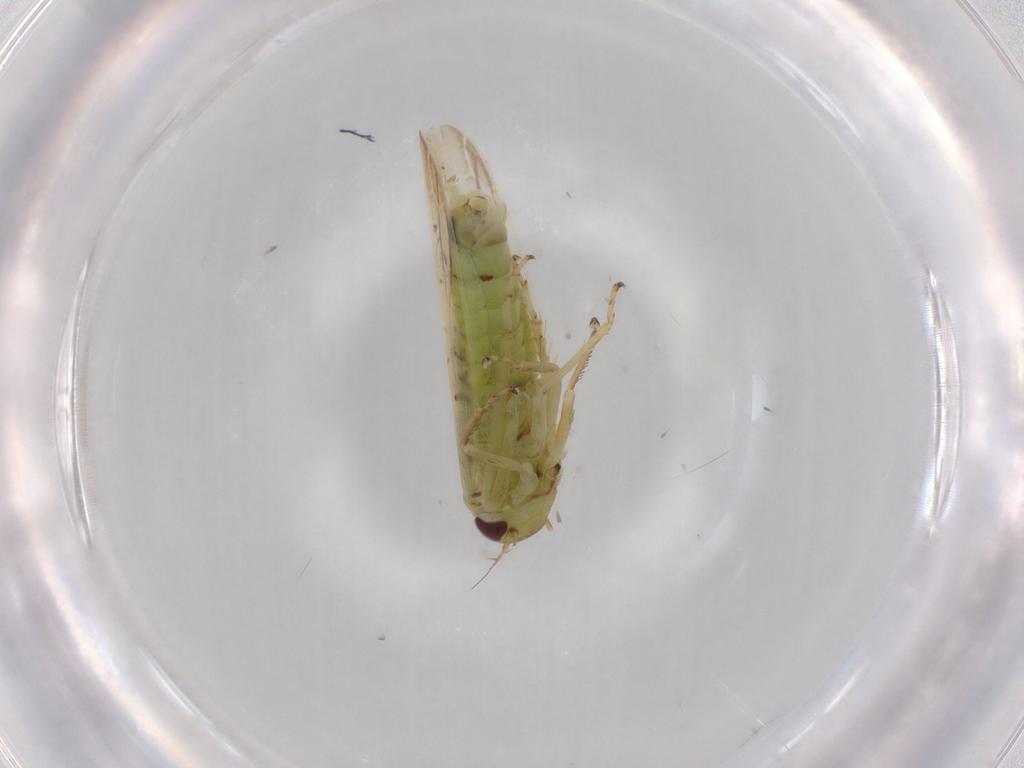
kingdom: Animalia
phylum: Arthropoda
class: Insecta
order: Hemiptera
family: Cicadellidae
